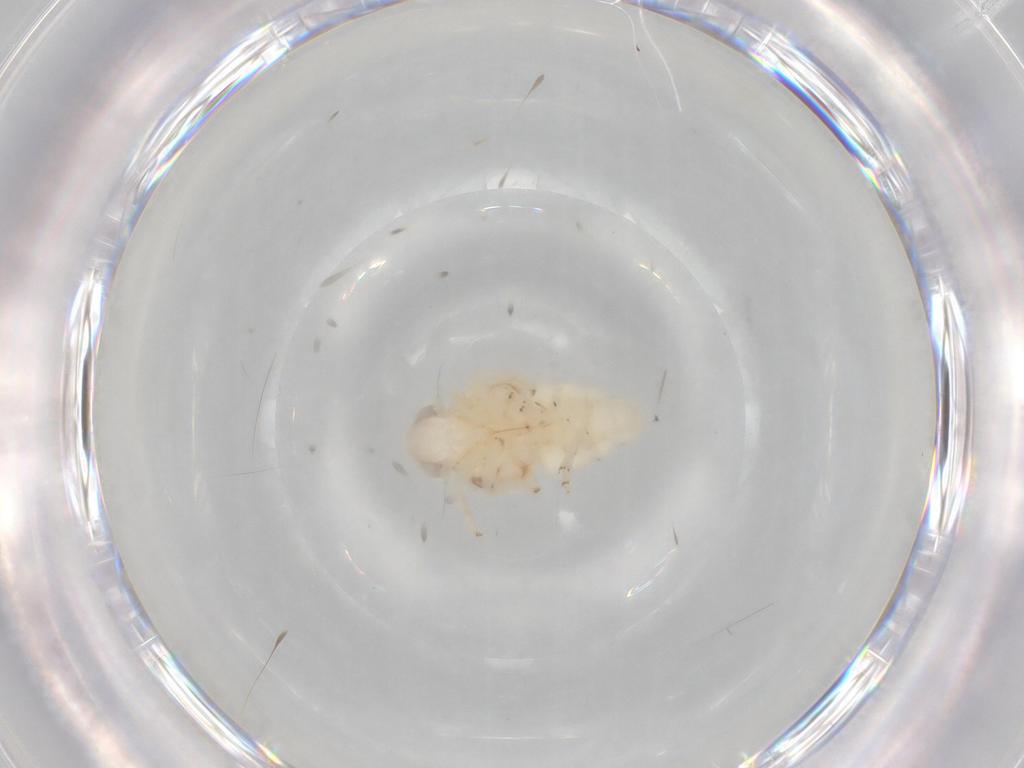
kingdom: Animalia
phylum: Arthropoda
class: Insecta
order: Hemiptera
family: Nogodinidae
